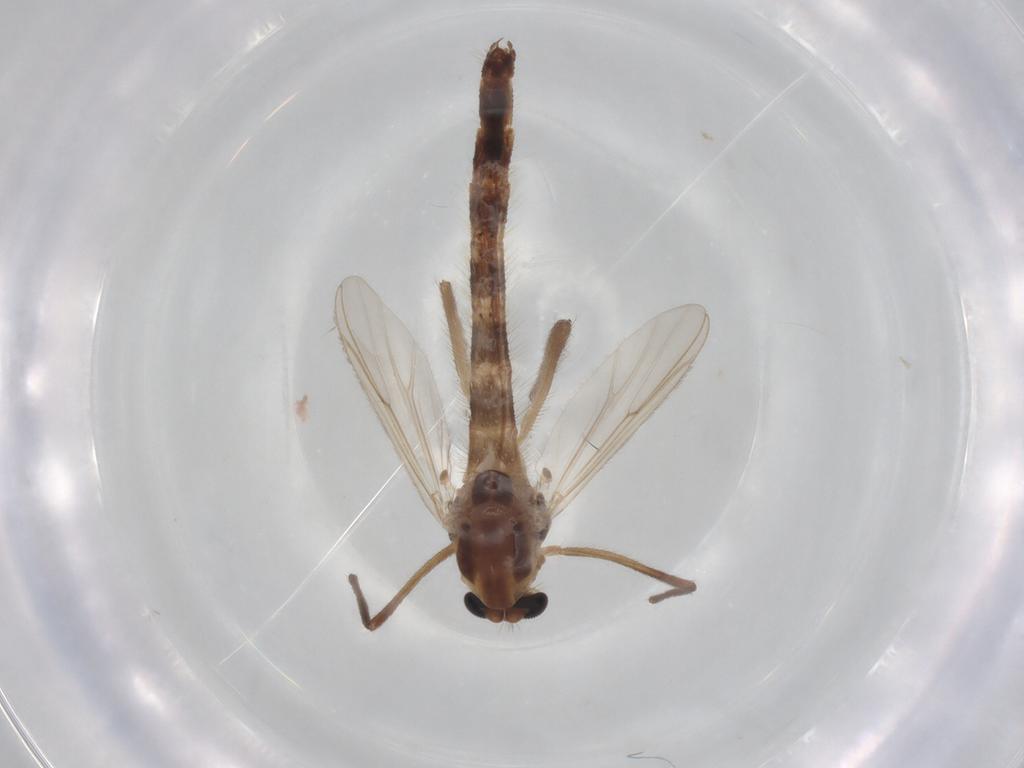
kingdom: Animalia
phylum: Arthropoda
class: Insecta
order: Diptera
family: Chironomidae
